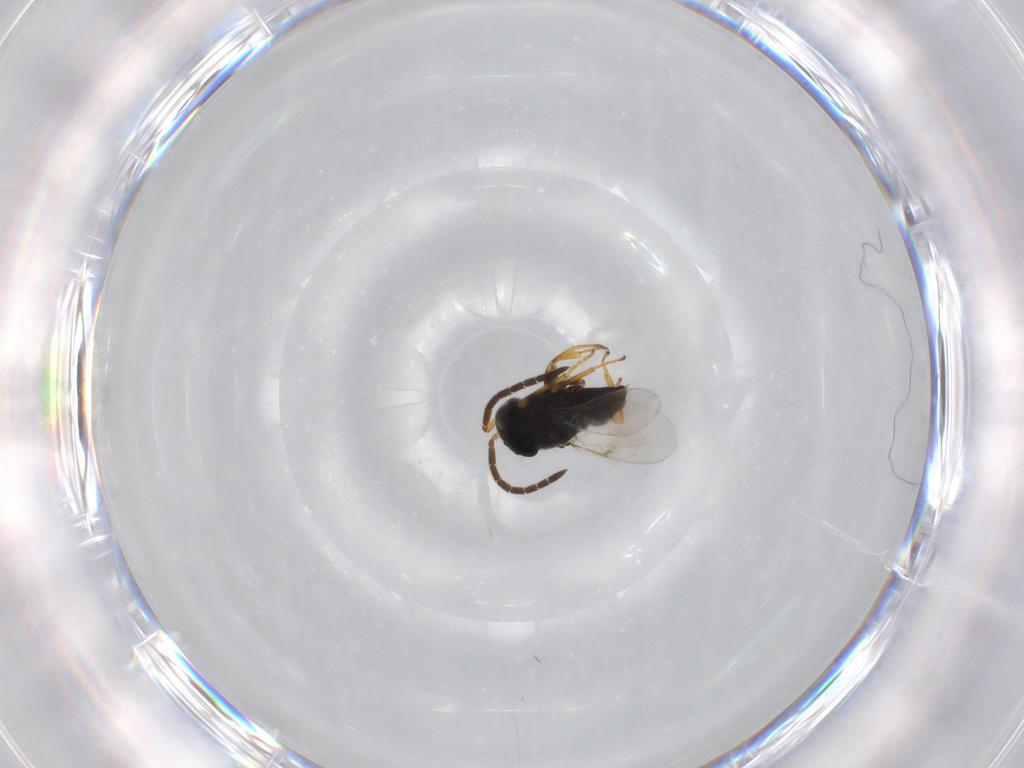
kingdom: Animalia
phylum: Arthropoda
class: Insecta
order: Hymenoptera
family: Encyrtidae
